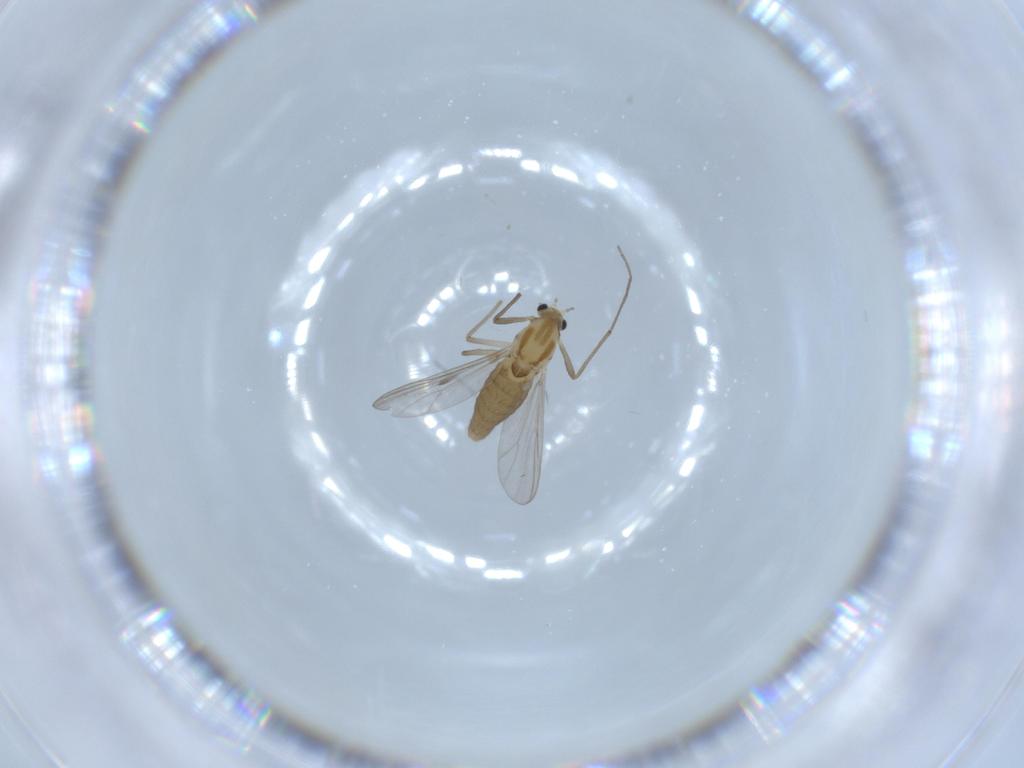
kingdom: Animalia
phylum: Arthropoda
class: Insecta
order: Diptera
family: Chironomidae
